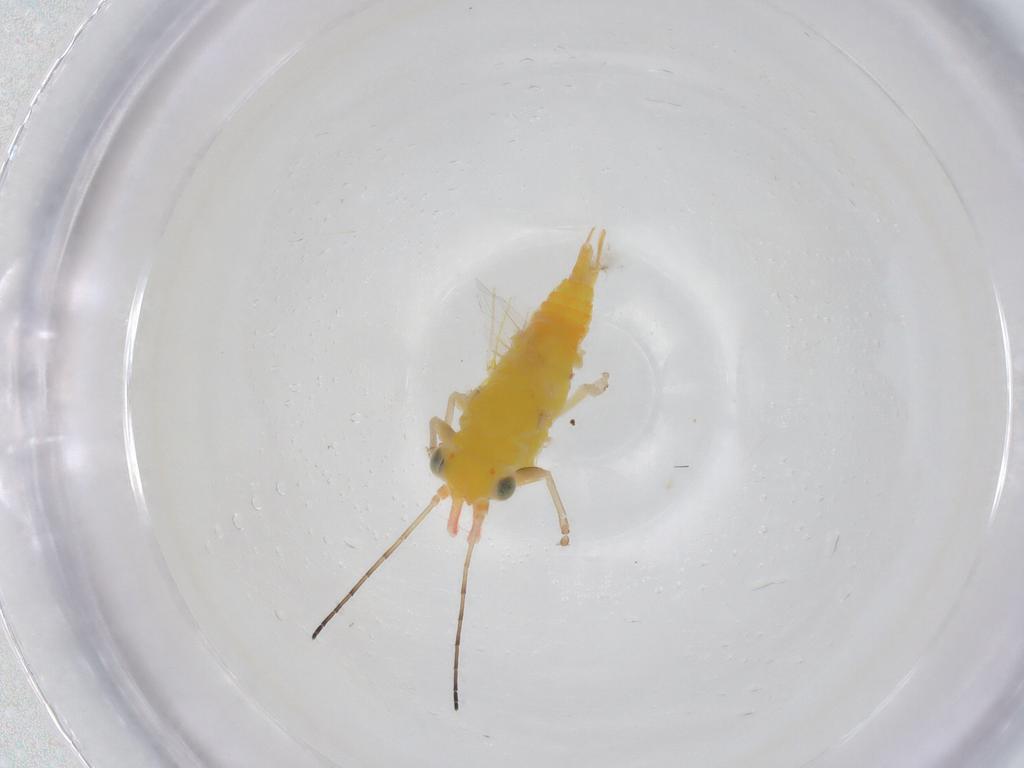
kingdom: Animalia
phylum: Arthropoda
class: Insecta
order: Hemiptera
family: Aphalaridae
